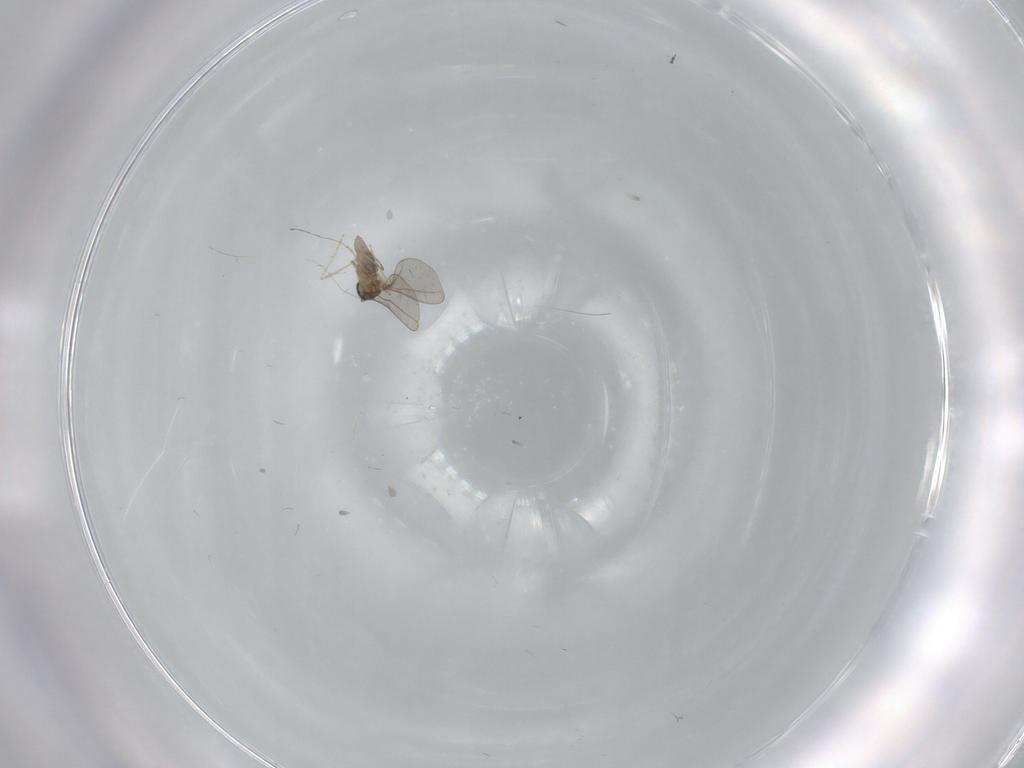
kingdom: Animalia
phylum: Arthropoda
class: Insecta
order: Diptera
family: Cecidomyiidae
